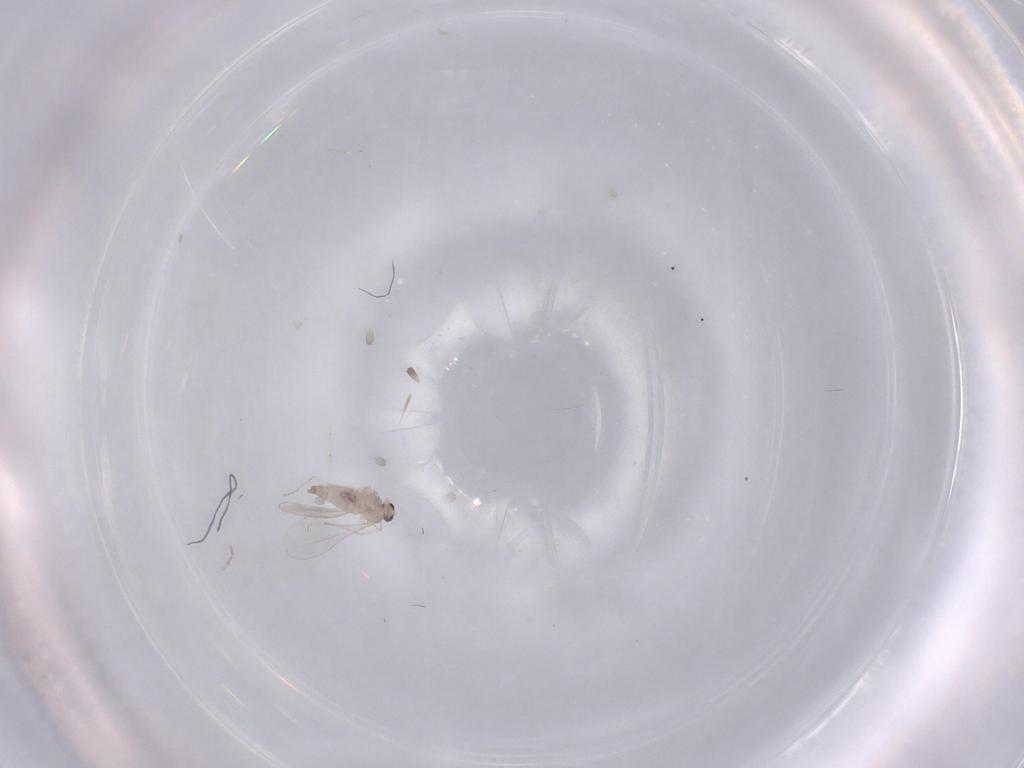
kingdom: Animalia
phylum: Arthropoda
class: Insecta
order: Diptera
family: Cecidomyiidae
